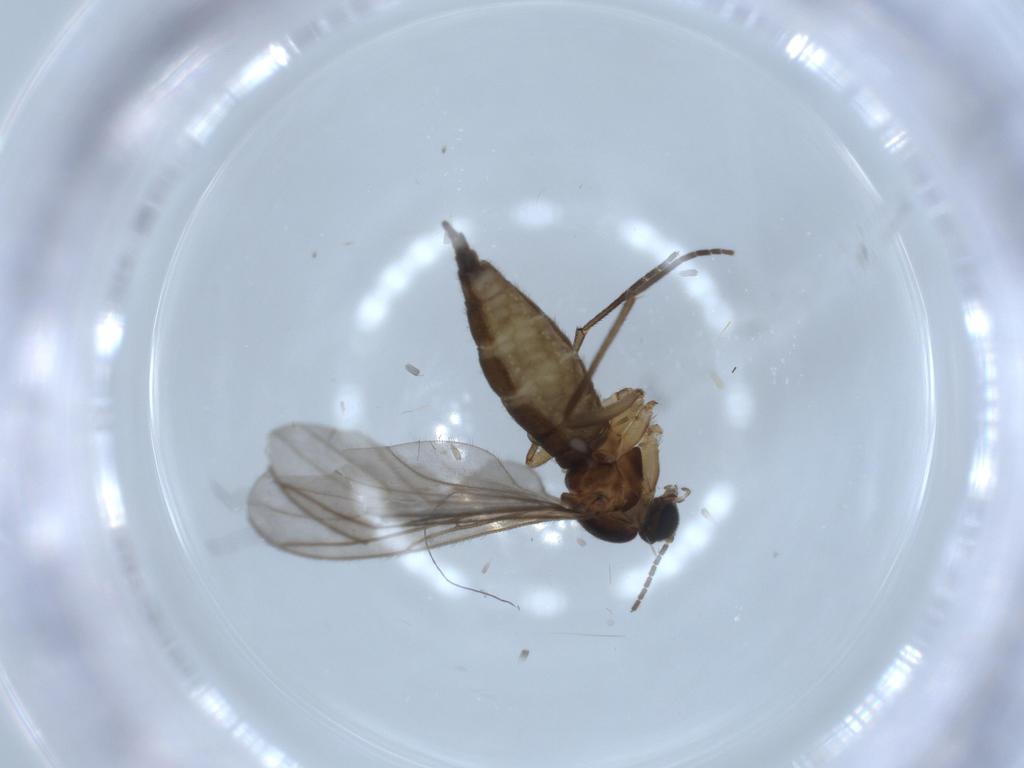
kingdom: Animalia
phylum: Arthropoda
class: Insecta
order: Diptera
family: Sciaridae
